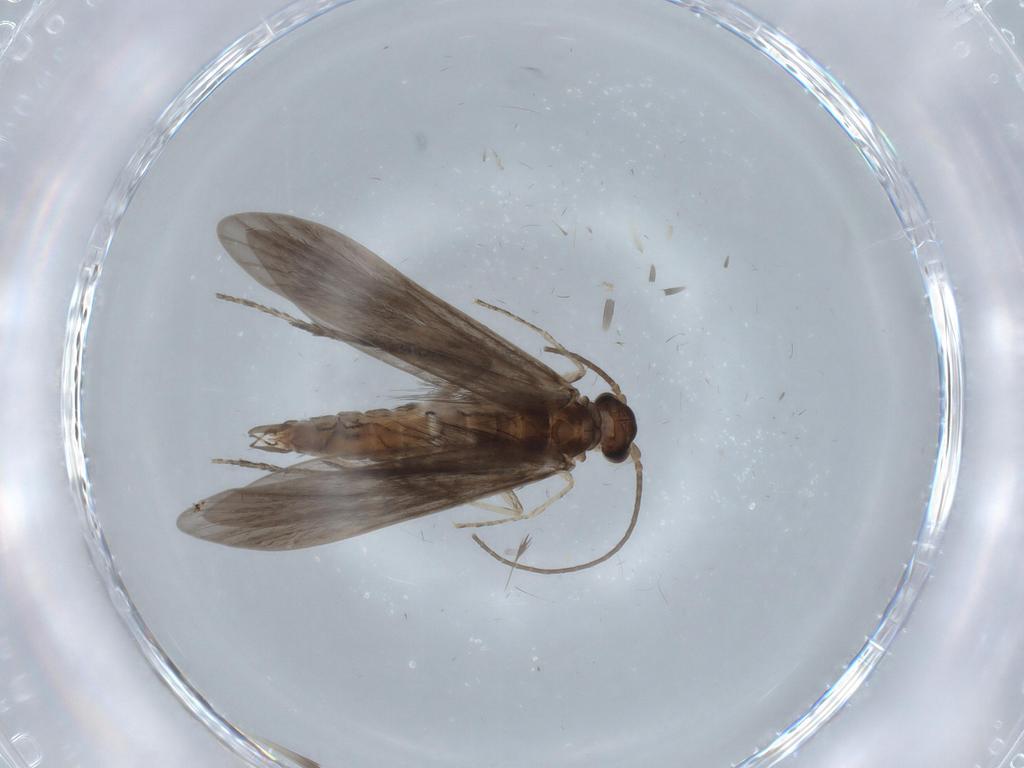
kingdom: Animalia
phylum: Arthropoda
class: Insecta
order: Trichoptera
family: Xiphocentronidae
